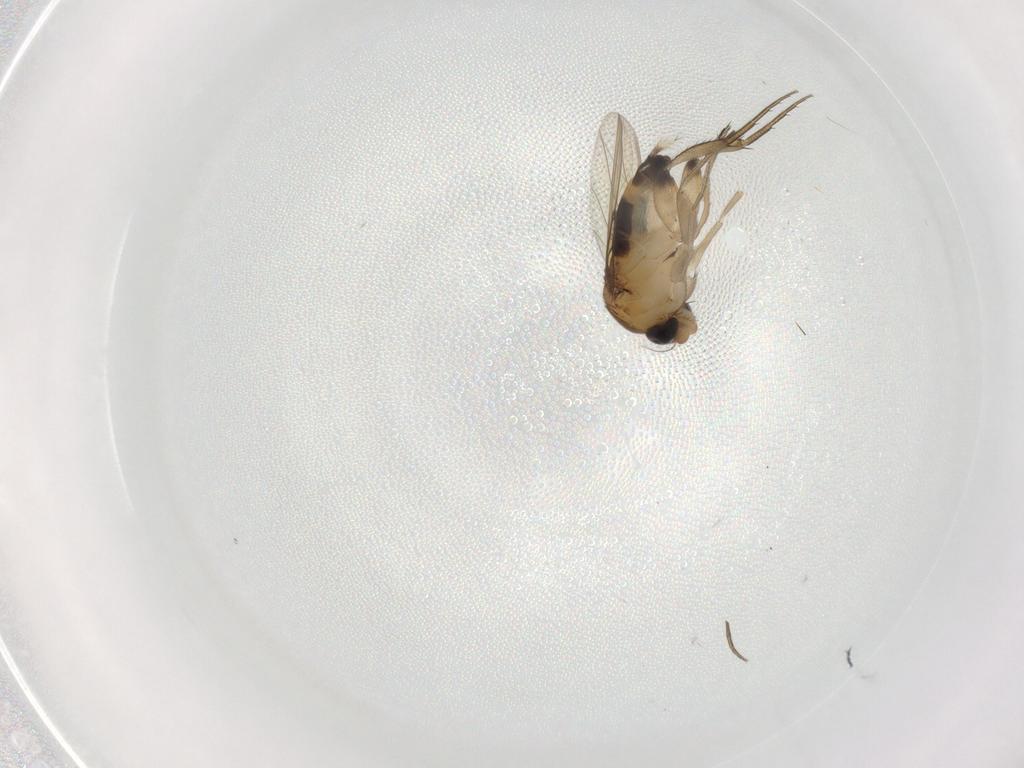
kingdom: Animalia
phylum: Arthropoda
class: Insecta
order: Diptera
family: Phoridae
